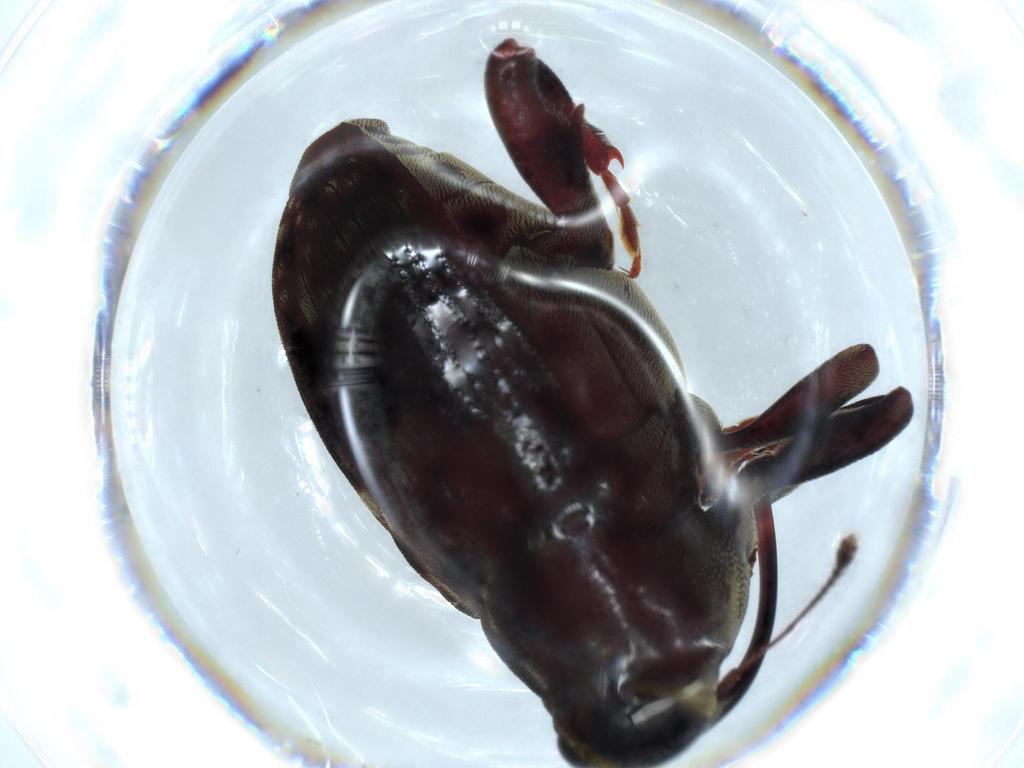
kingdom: Animalia
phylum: Arthropoda
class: Insecta
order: Coleoptera
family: Curculionidae
